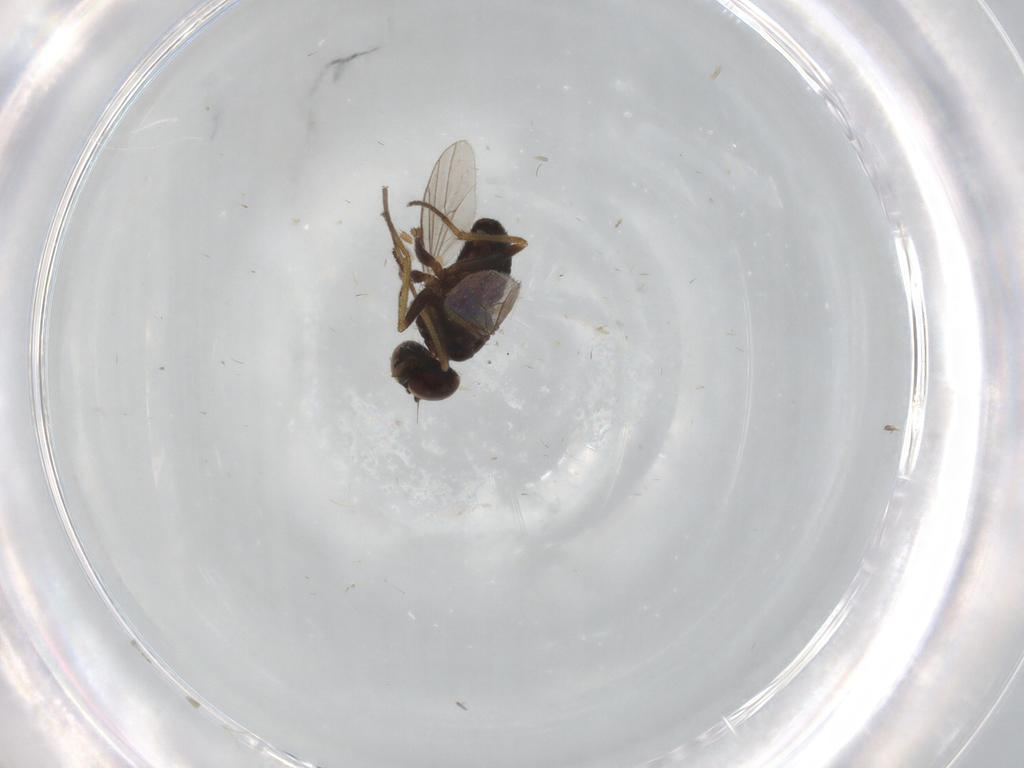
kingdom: Animalia
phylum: Arthropoda
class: Insecta
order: Diptera
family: Dolichopodidae
